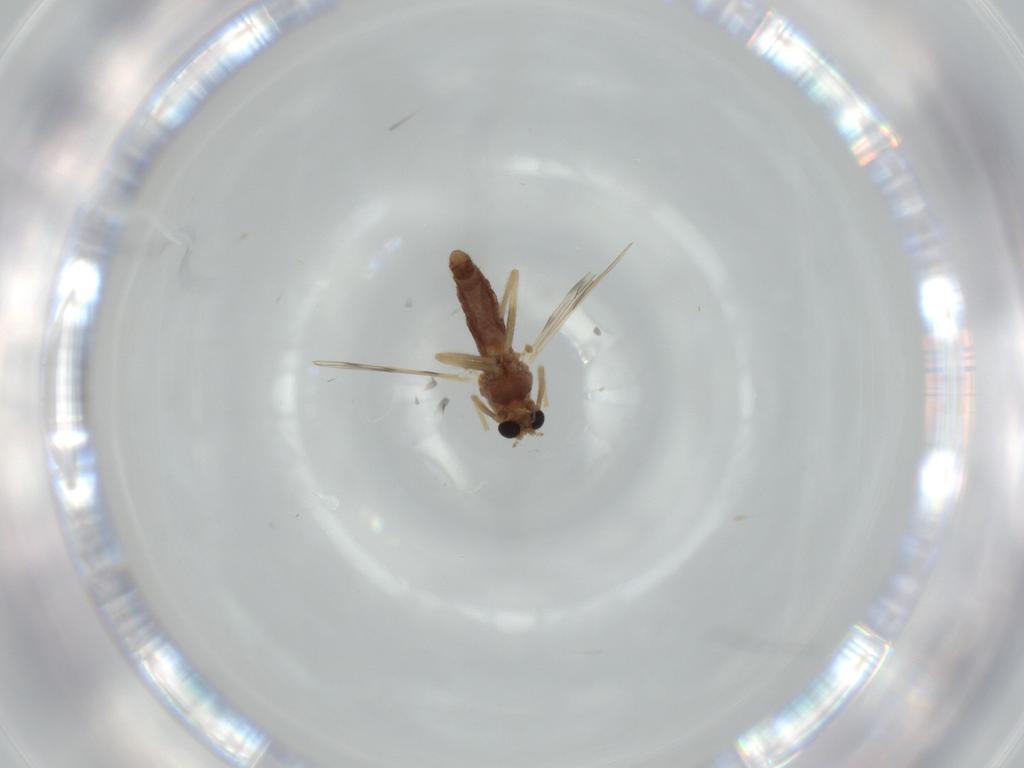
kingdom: Animalia
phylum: Arthropoda
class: Insecta
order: Diptera
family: Chironomidae
